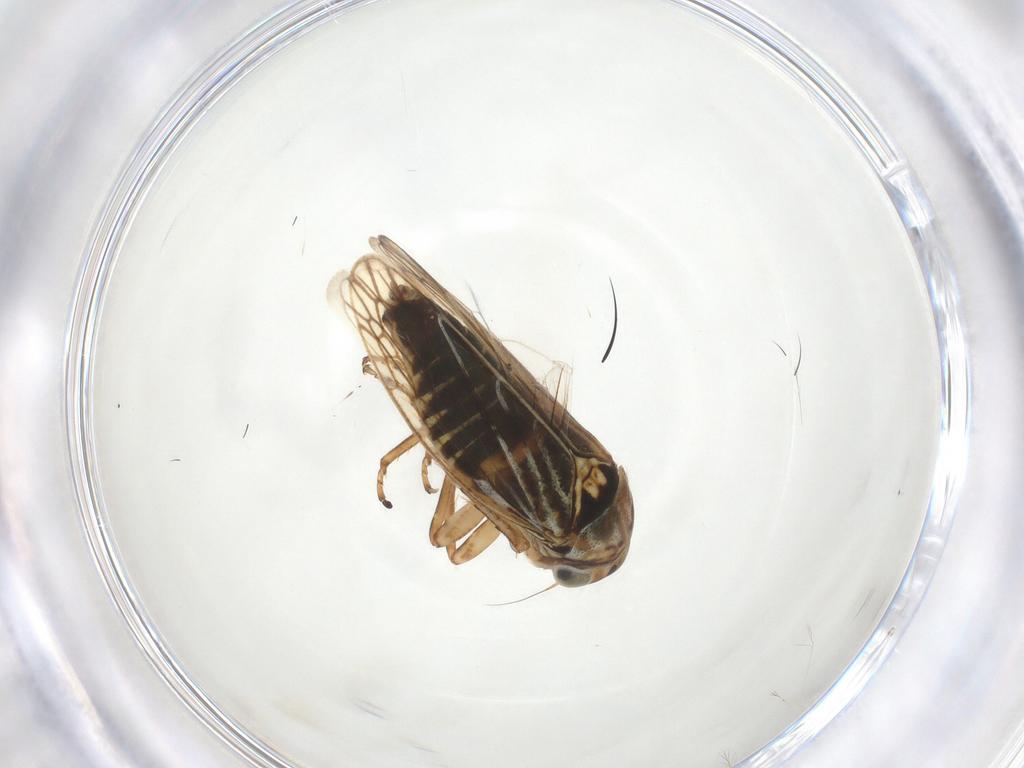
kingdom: Animalia
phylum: Arthropoda
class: Insecta
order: Hemiptera
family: Cicadellidae
